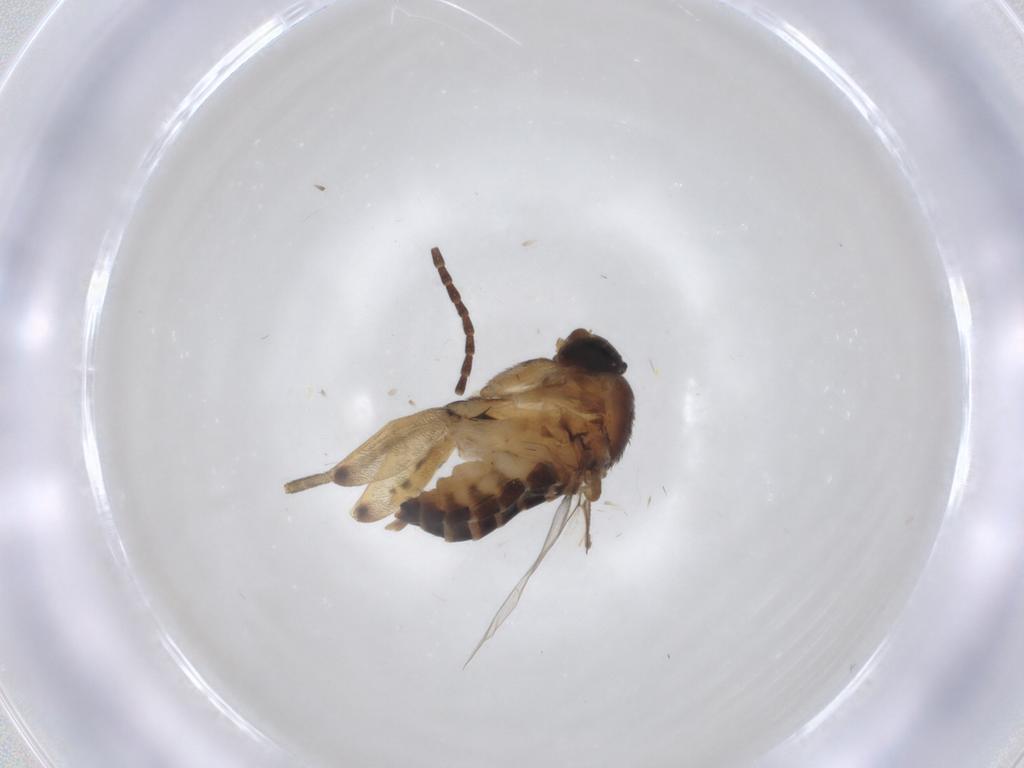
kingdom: Animalia
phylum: Arthropoda
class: Insecta
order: Diptera
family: Phoridae
